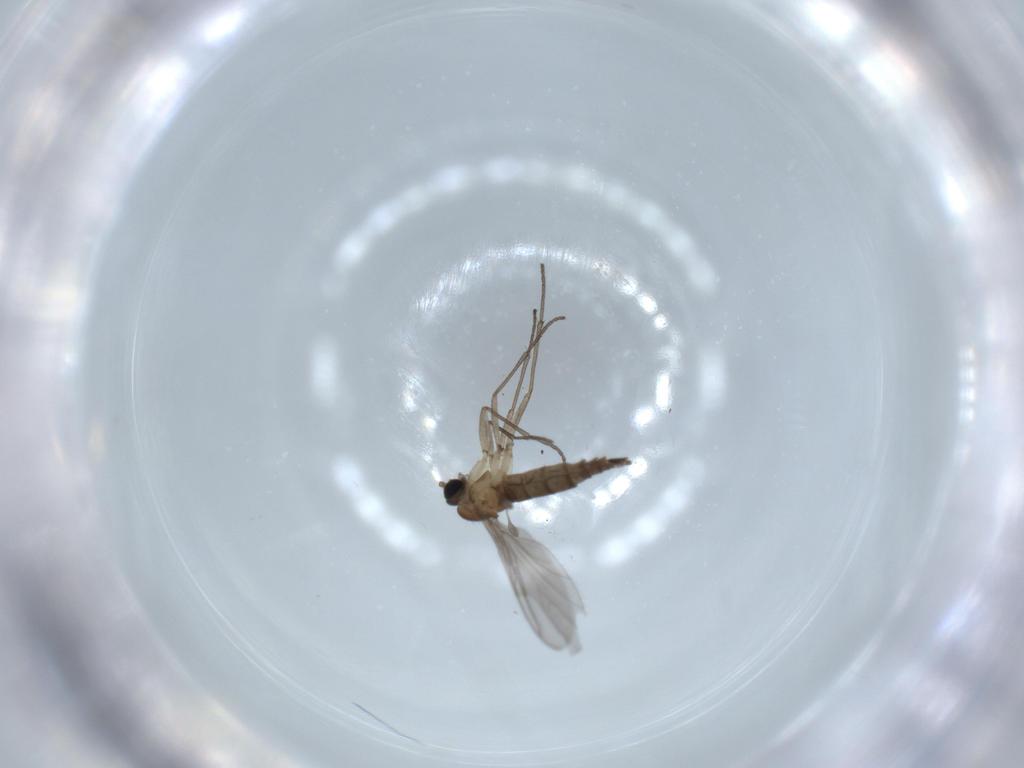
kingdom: Animalia
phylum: Arthropoda
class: Insecta
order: Diptera
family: Sciaridae
